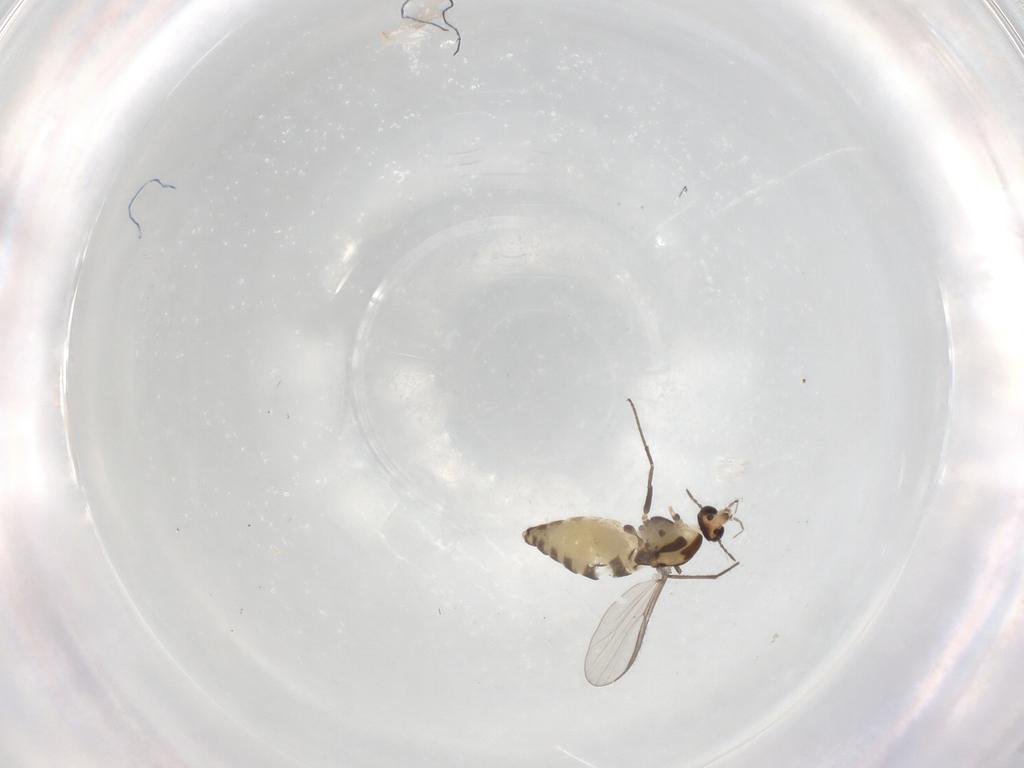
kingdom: Animalia
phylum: Arthropoda
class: Insecta
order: Diptera
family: Chironomidae
